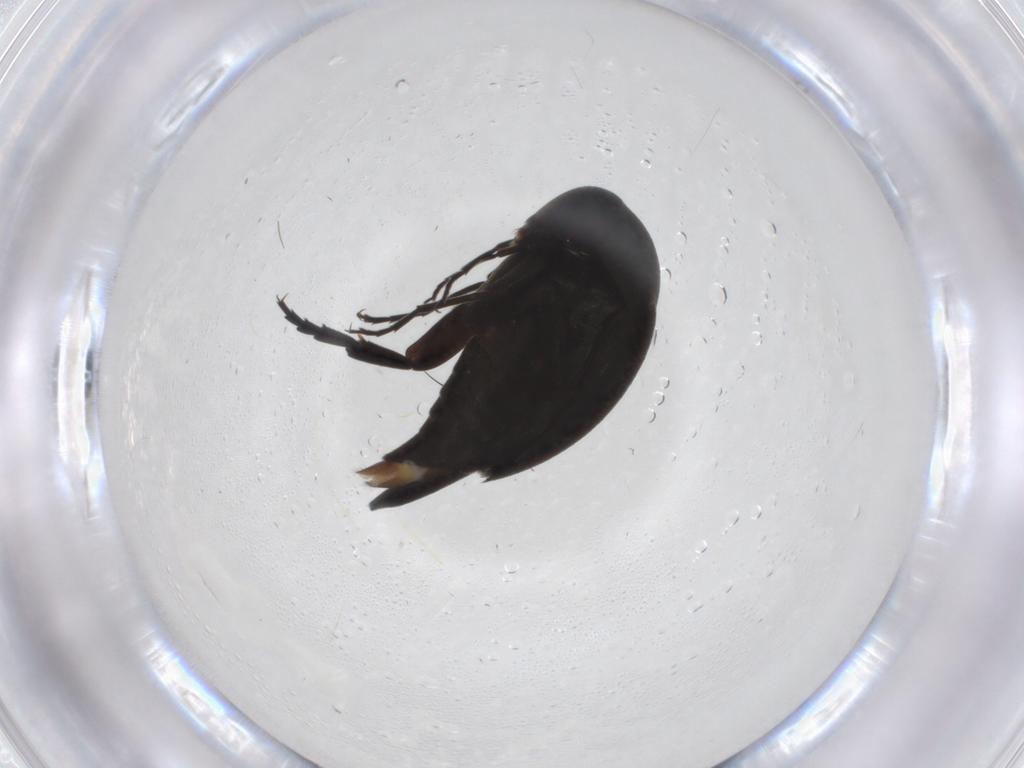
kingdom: Animalia
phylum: Arthropoda
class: Insecta
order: Coleoptera
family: Mordellidae
